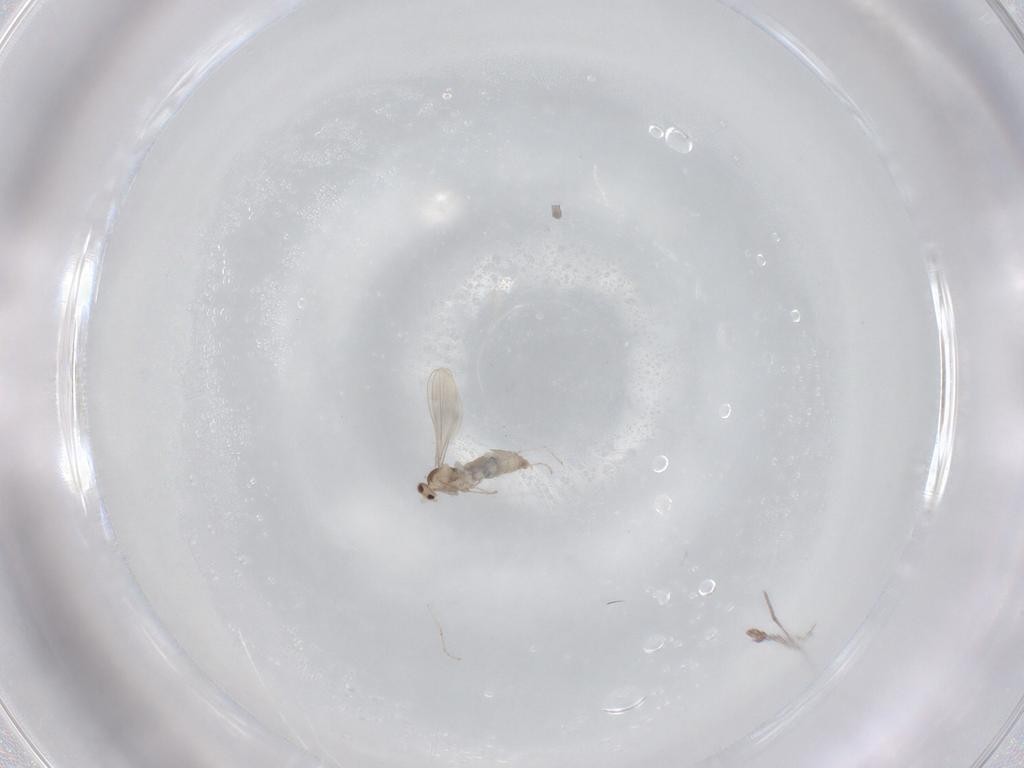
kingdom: Animalia
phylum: Arthropoda
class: Insecta
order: Diptera
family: Cecidomyiidae
